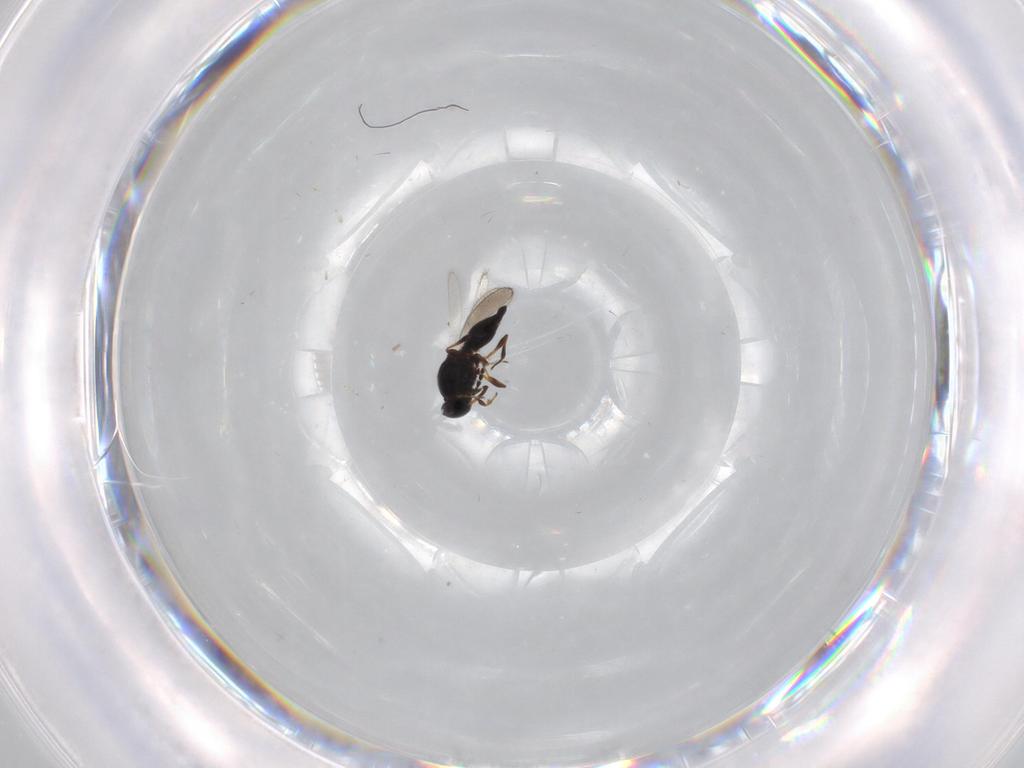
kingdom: Animalia
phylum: Arthropoda
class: Insecta
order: Hymenoptera
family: Platygastridae
